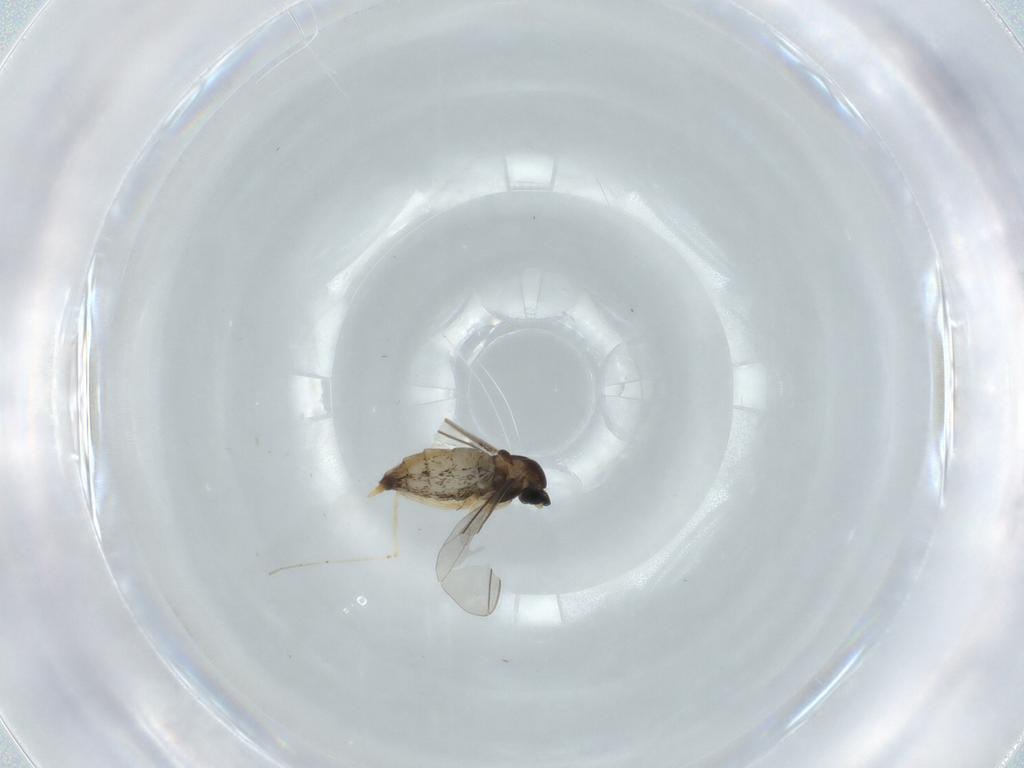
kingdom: Animalia
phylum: Arthropoda
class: Insecta
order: Diptera
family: Cecidomyiidae
